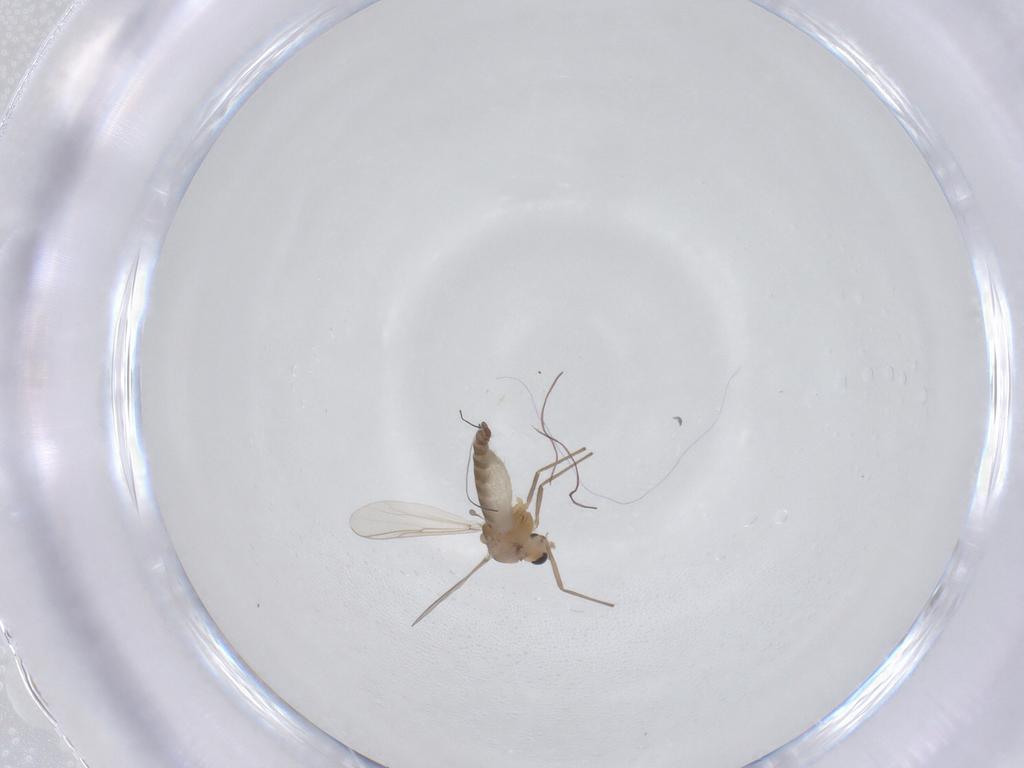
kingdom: Animalia
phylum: Arthropoda
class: Insecta
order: Diptera
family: Chironomidae
